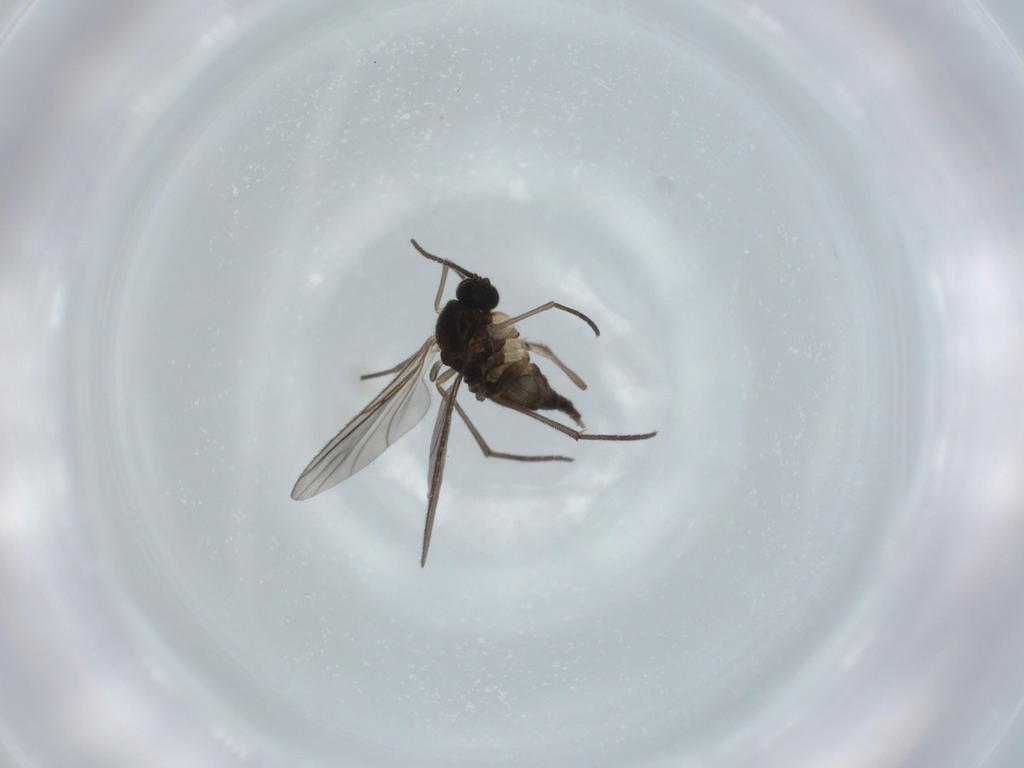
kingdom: Animalia
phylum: Arthropoda
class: Insecta
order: Diptera
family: Sciaridae
